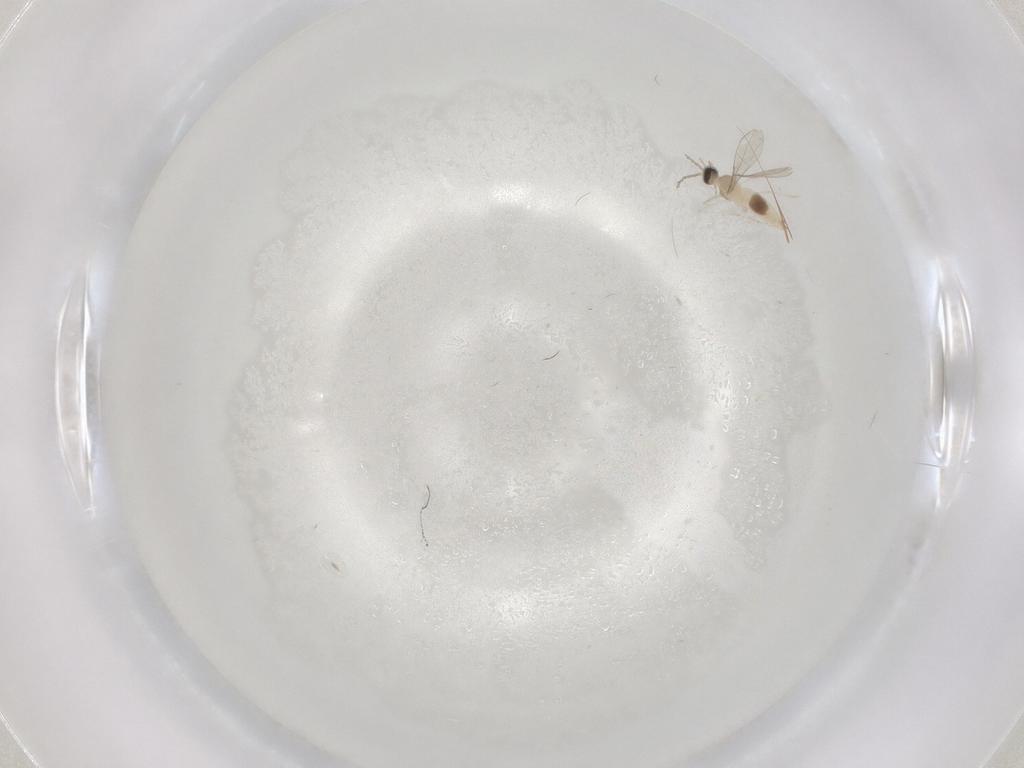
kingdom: Animalia
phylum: Arthropoda
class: Insecta
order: Diptera
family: Cecidomyiidae
